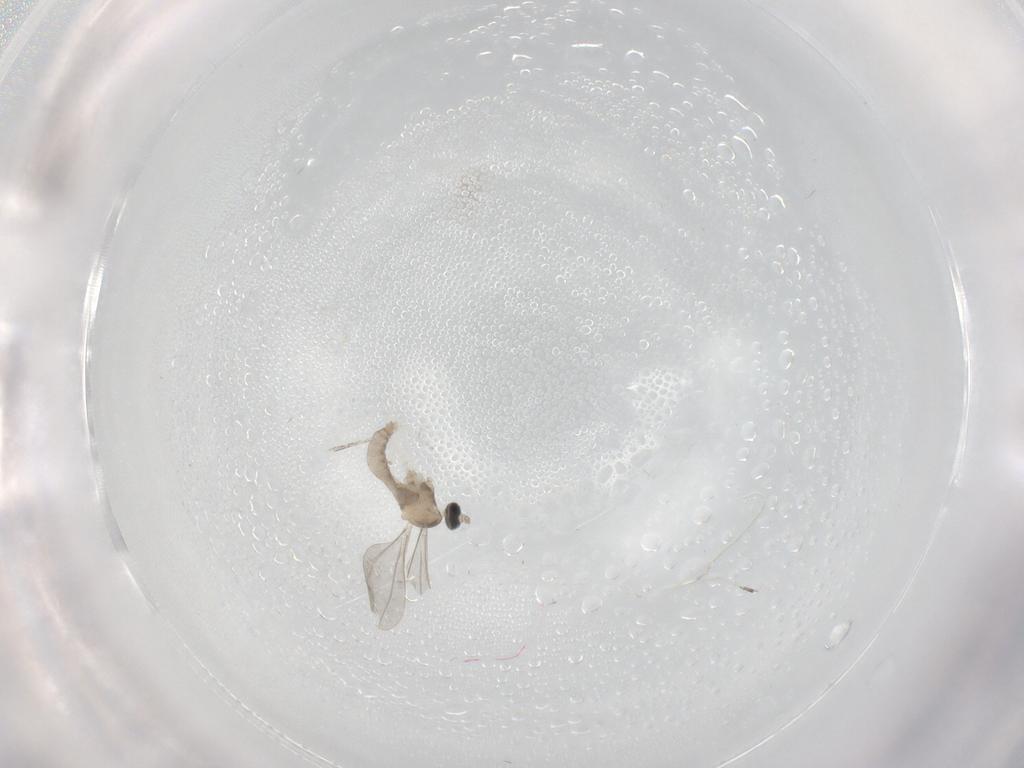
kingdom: Animalia
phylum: Arthropoda
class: Insecta
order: Diptera
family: Cecidomyiidae
